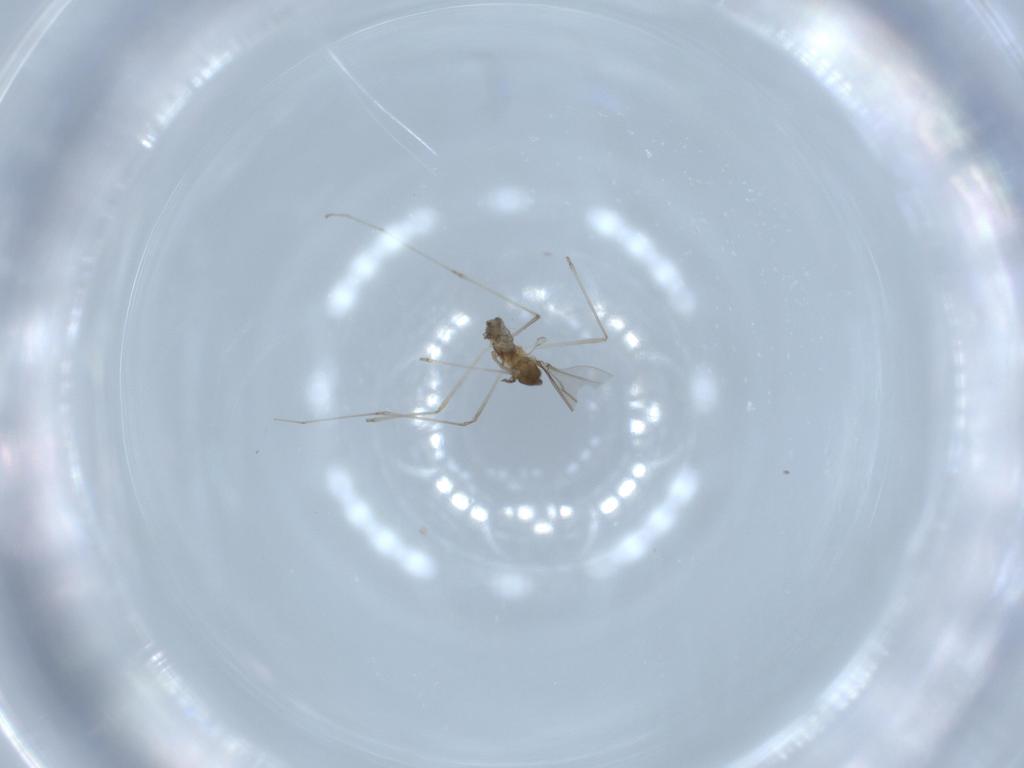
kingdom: Animalia
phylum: Arthropoda
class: Insecta
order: Diptera
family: Cecidomyiidae
